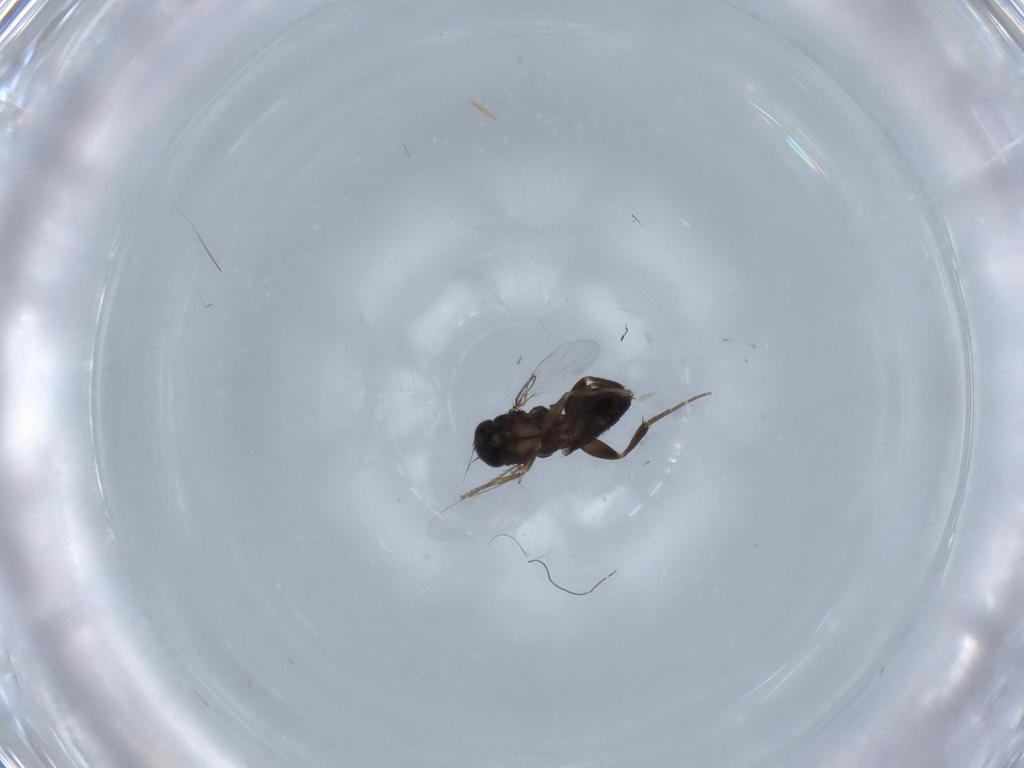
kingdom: Animalia
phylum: Arthropoda
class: Insecta
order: Diptera
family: Phoridae
